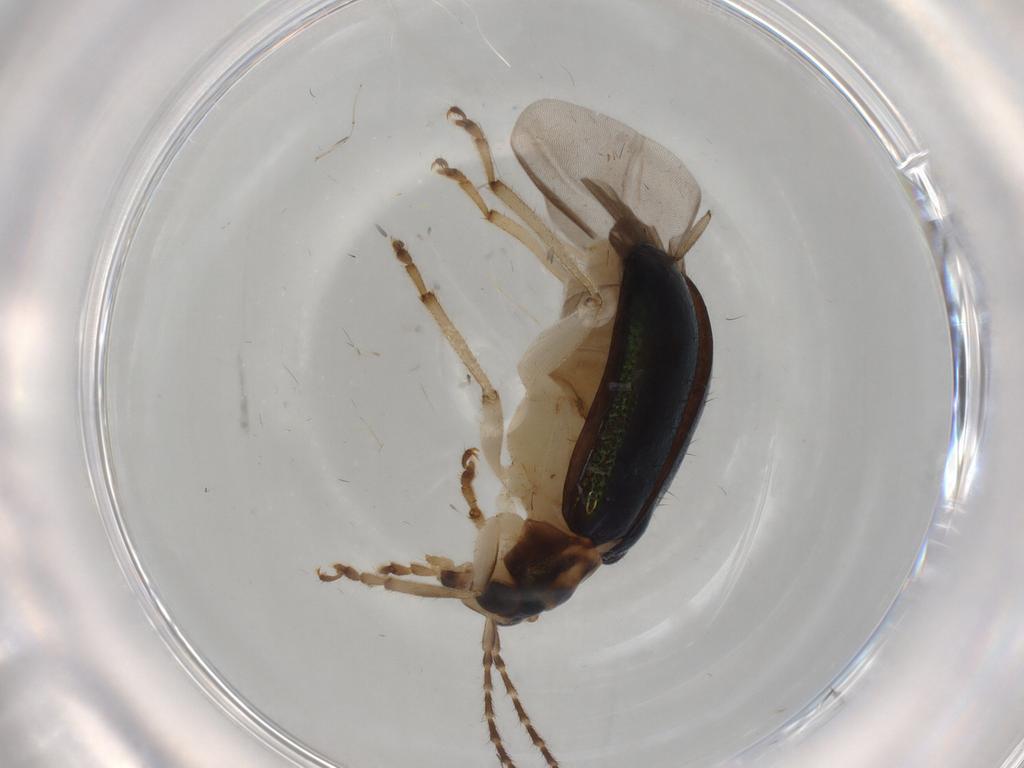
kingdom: Animalia
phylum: Arthropoda
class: Insecta
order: Coleoptera
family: Chrysomelidae
